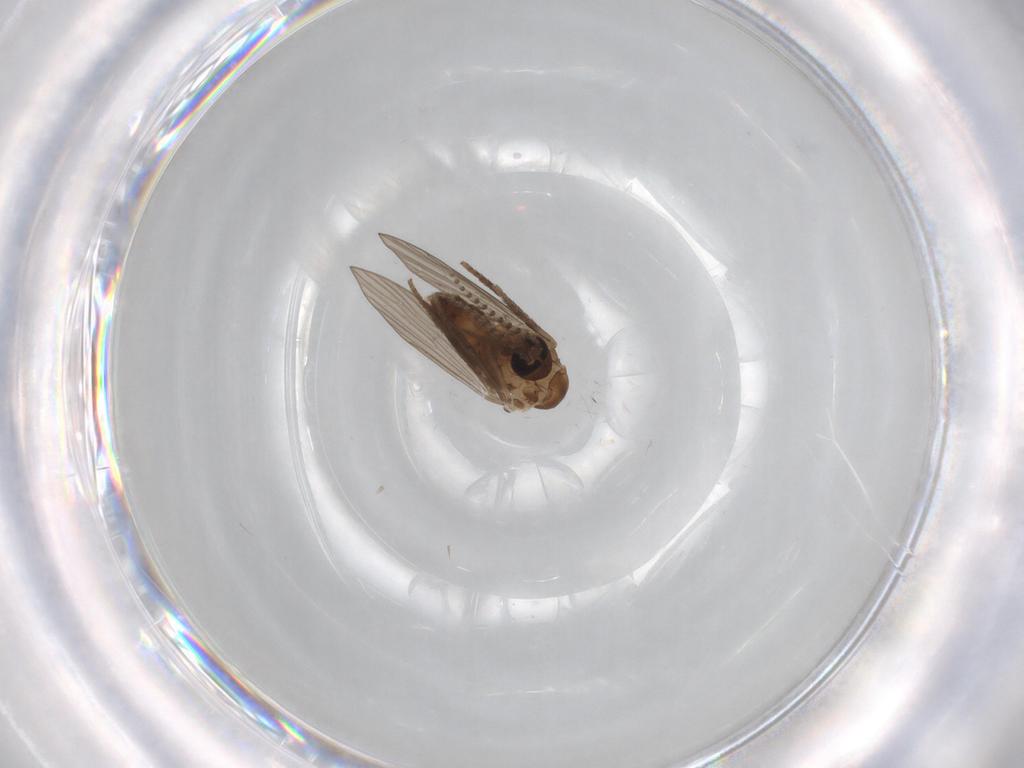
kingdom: Animalia
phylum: Arthropoda
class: Insecta
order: Diptera
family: Psychodidae
